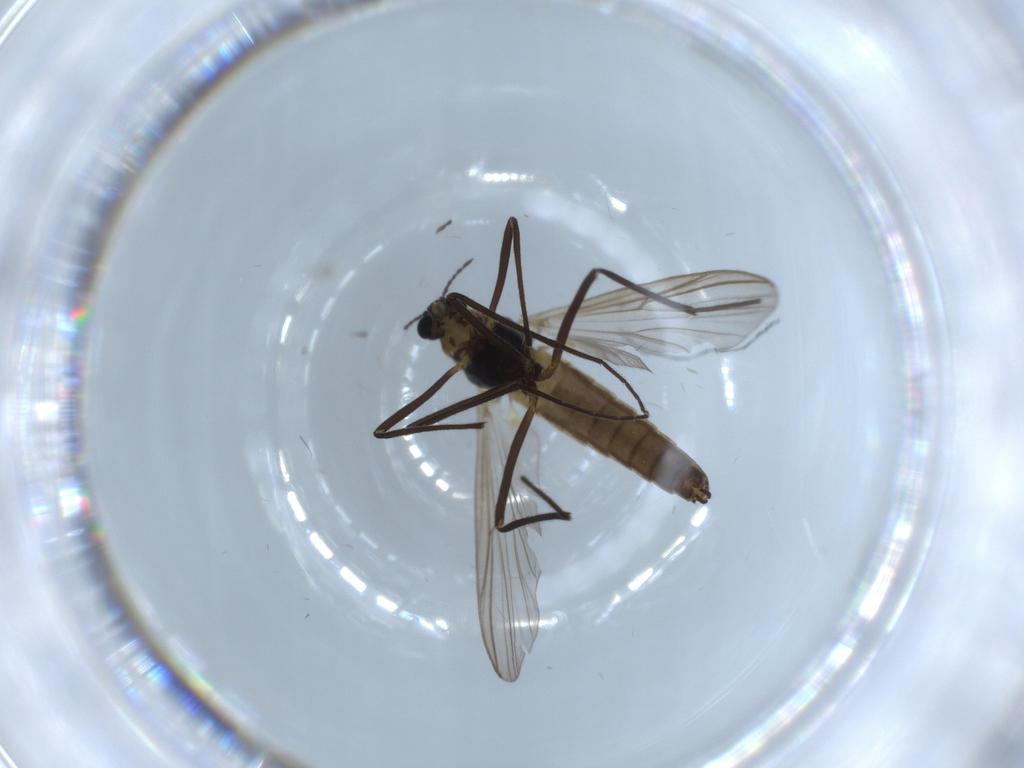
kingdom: Animalia
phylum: Arthropoda
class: Insecta
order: Diptera
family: Chironomidae
